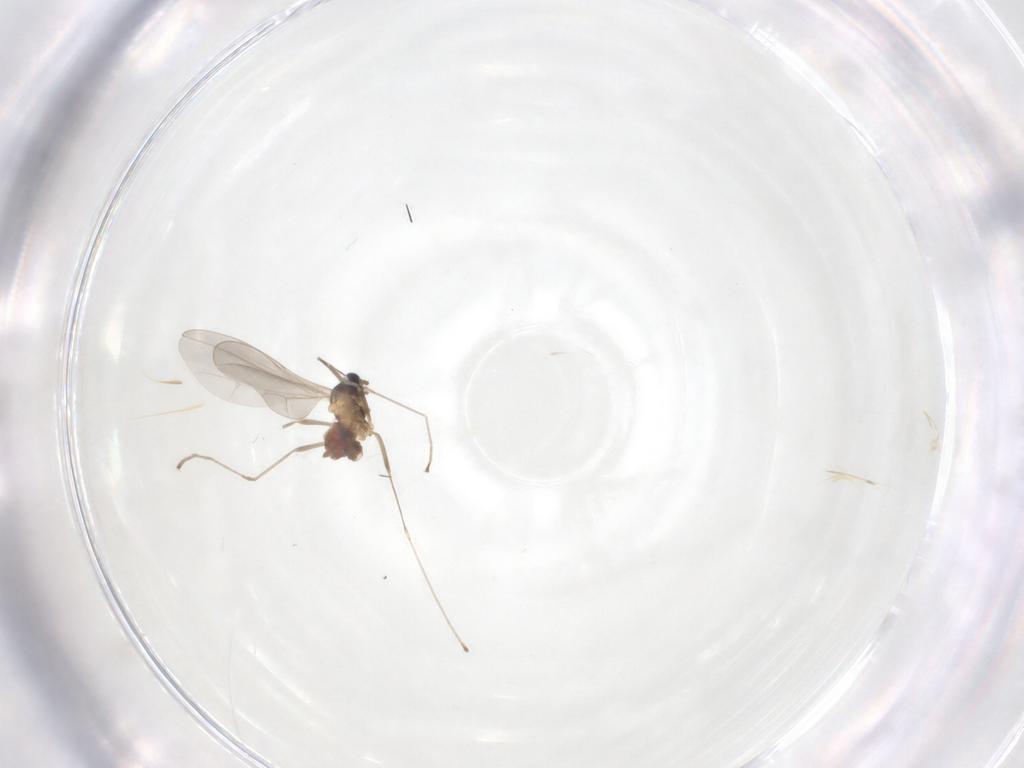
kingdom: Animalia
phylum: Arthropoda
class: Insecta
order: Diptera
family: Cecidomyiidae
